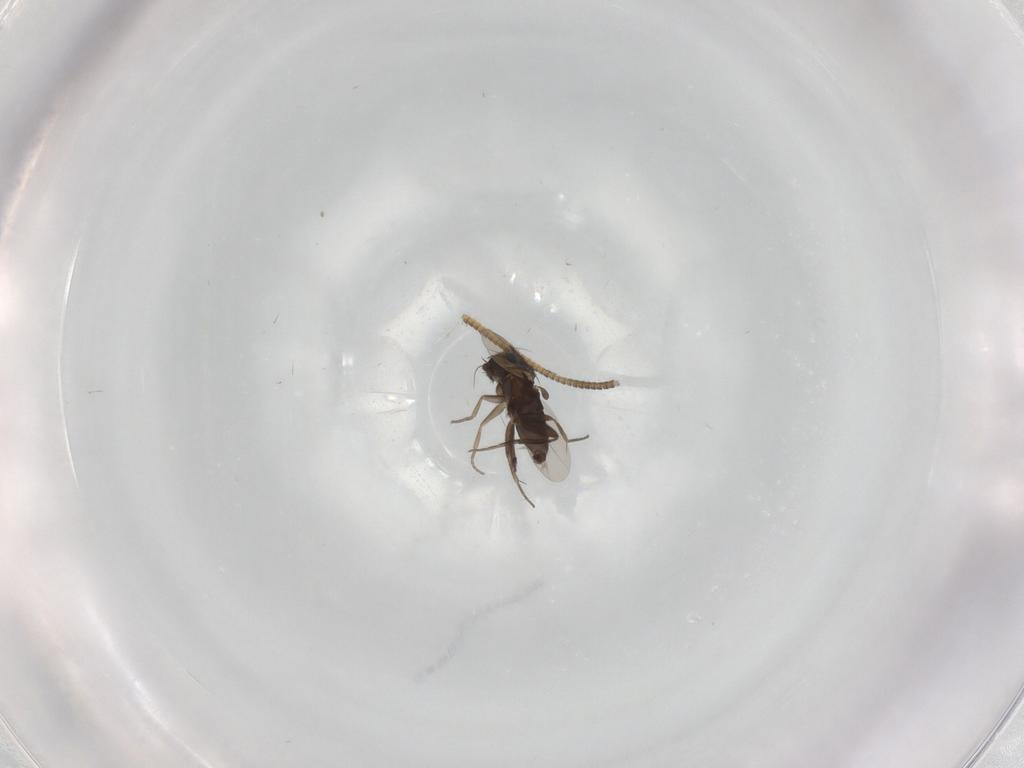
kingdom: Animalia
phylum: Arthropoda
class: Insecta
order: Diptera
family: Phoridae
